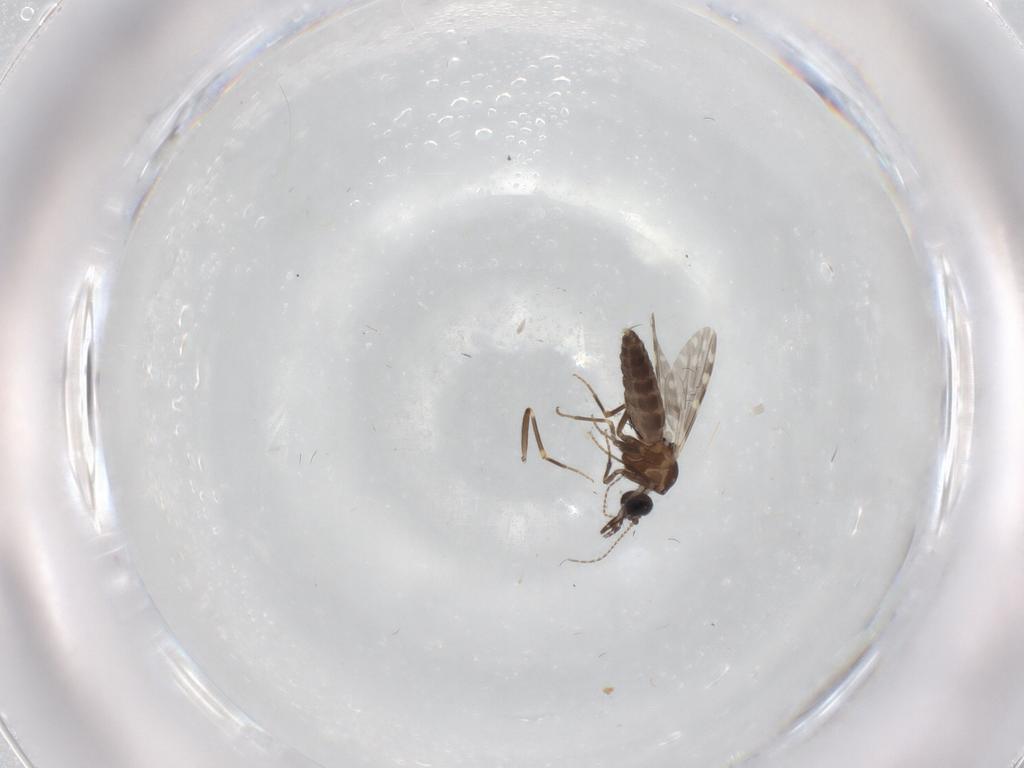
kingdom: Animalia
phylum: Arthropoda
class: Insecta
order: Diptera
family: Ceratopogonidae
